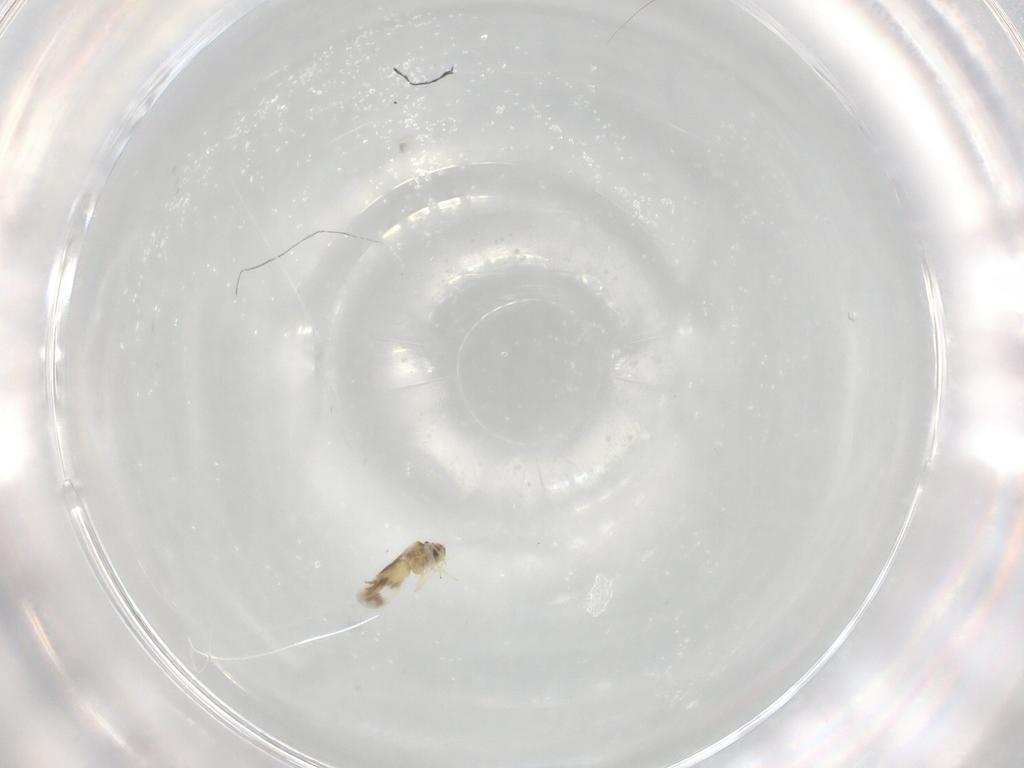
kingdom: Animalia
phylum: Arthropoda
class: Insecta
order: Hemiptera
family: Aleyrodidae
